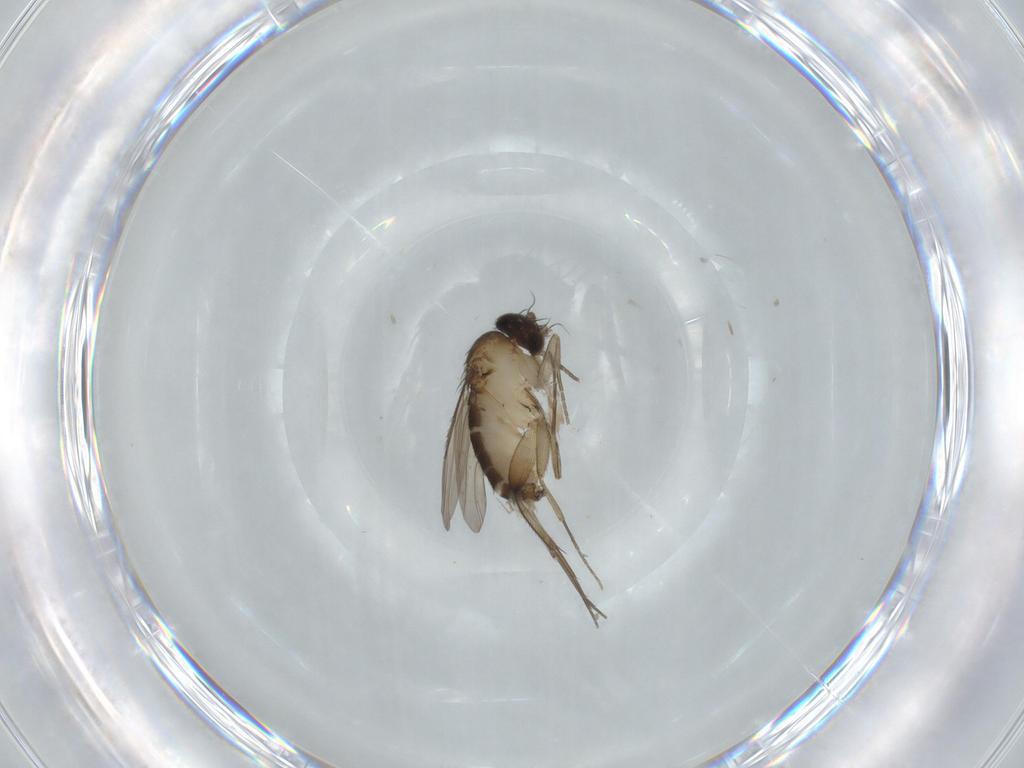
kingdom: Animalia
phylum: Arthropoda
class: Insecta
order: Diptera
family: Phoridae
